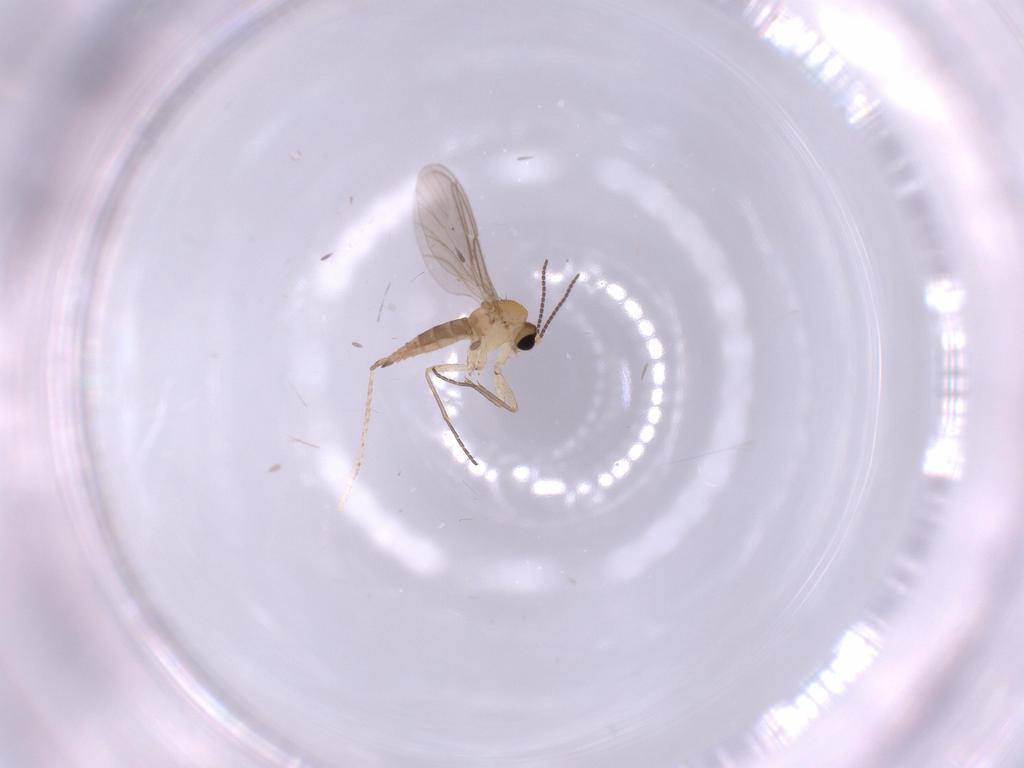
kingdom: Animalia
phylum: Arthropoda
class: Insecta
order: Diptera
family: Sciaridae
